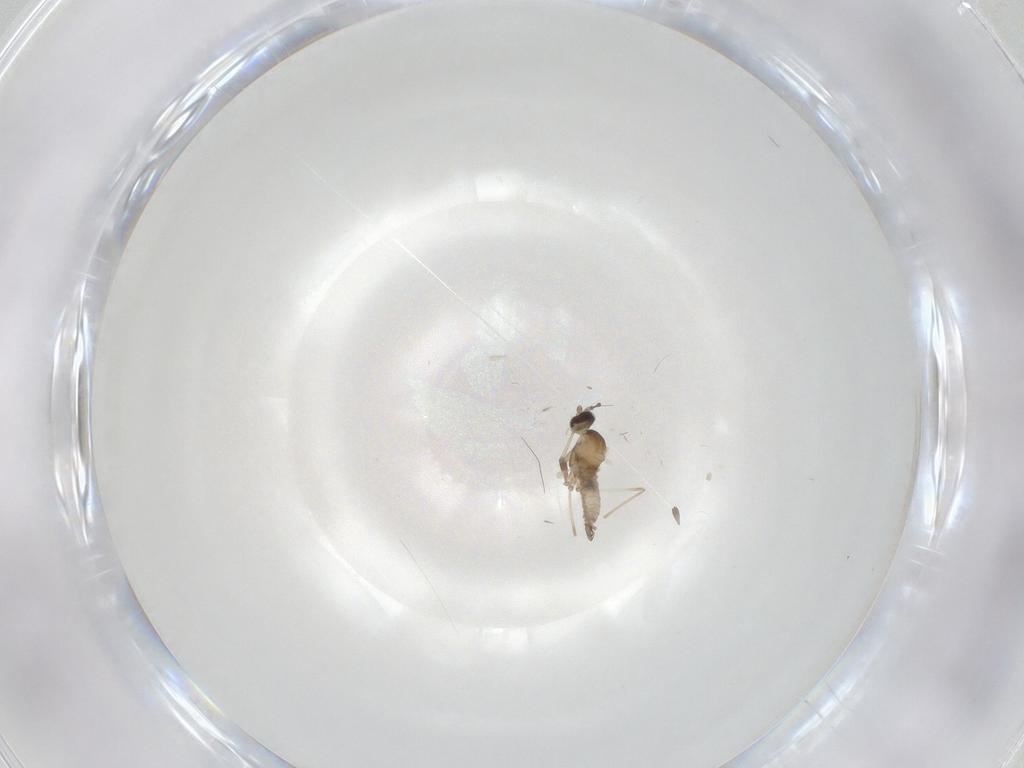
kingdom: Animalia
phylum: Arthropoda
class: Insecta
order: Diptera
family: Cecidomyiidae
